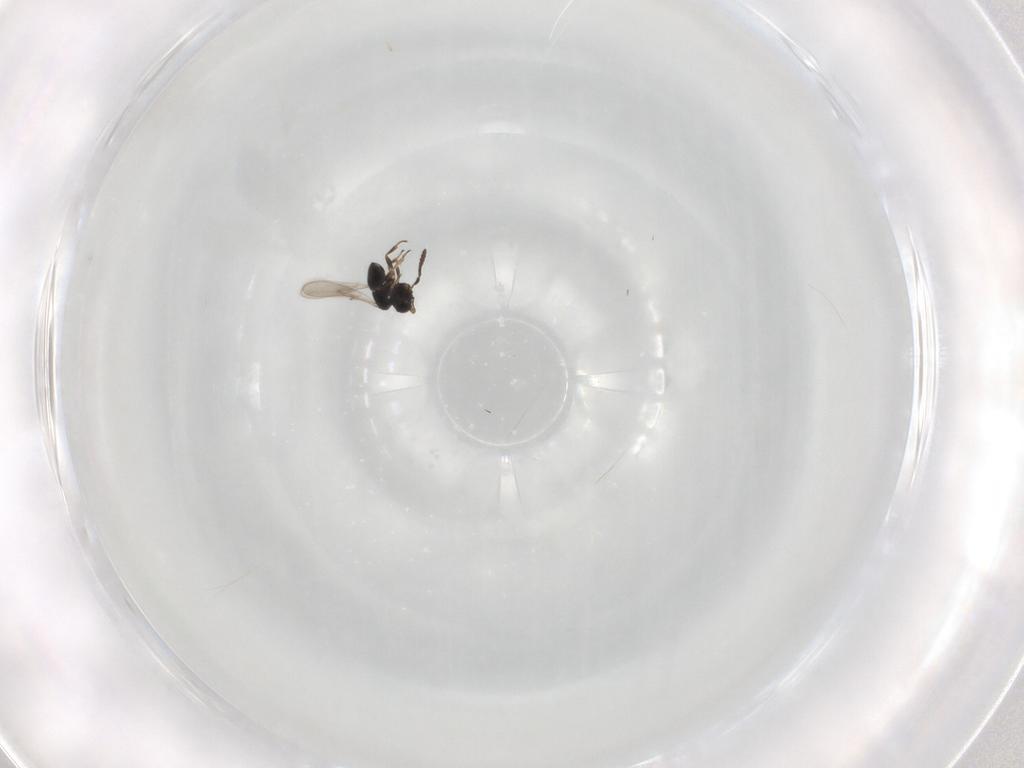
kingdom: Animalia
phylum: Arthropoda
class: Insecta
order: Hymenoptera
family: Scelionidae
